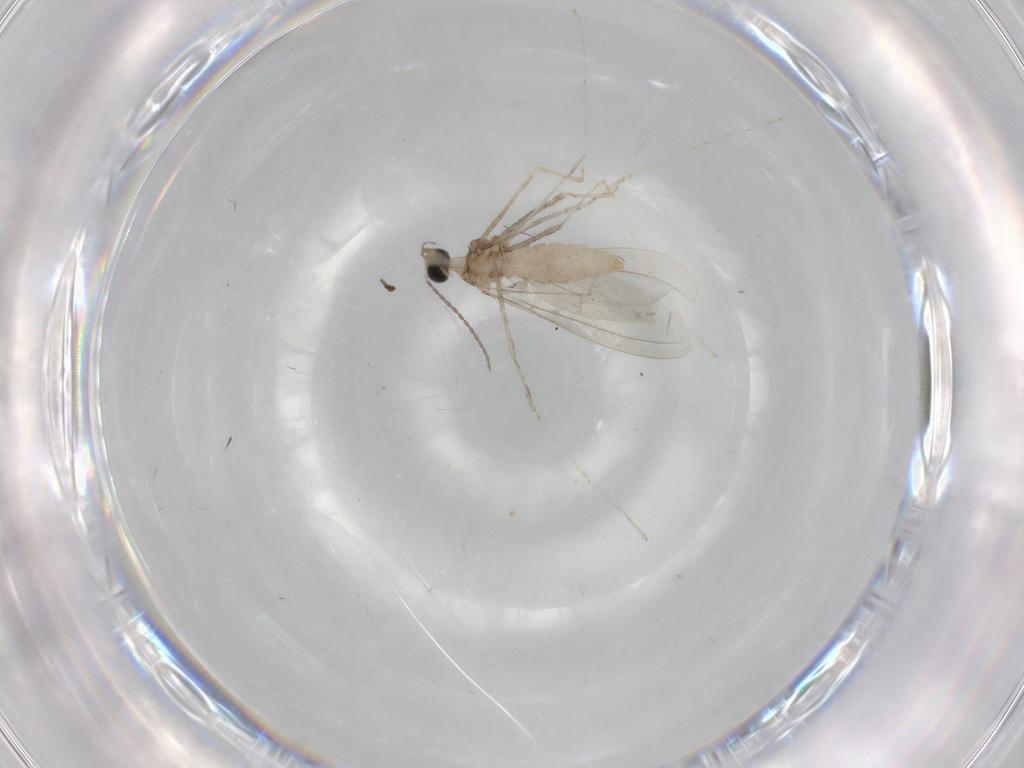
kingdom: Animalia
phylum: Arthropoda
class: Insecta
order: Diptera
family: Cecidomyiidae
